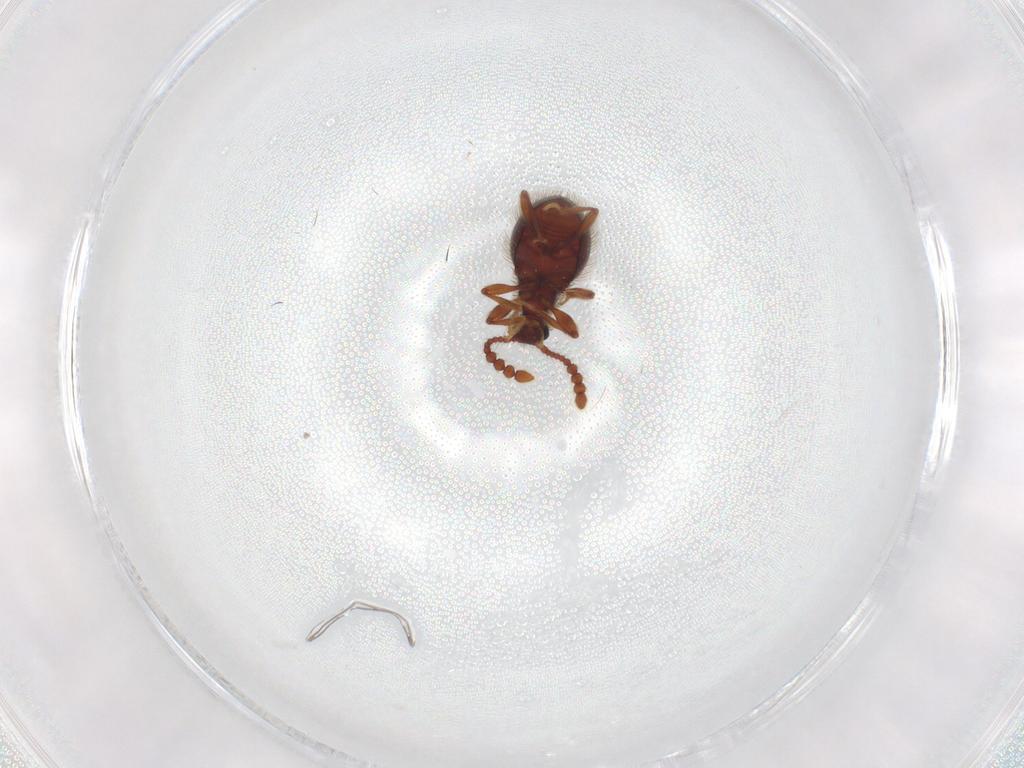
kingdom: Animalia
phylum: Arthropoda
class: Insecta
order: Coleoptera
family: Staphylinidae
